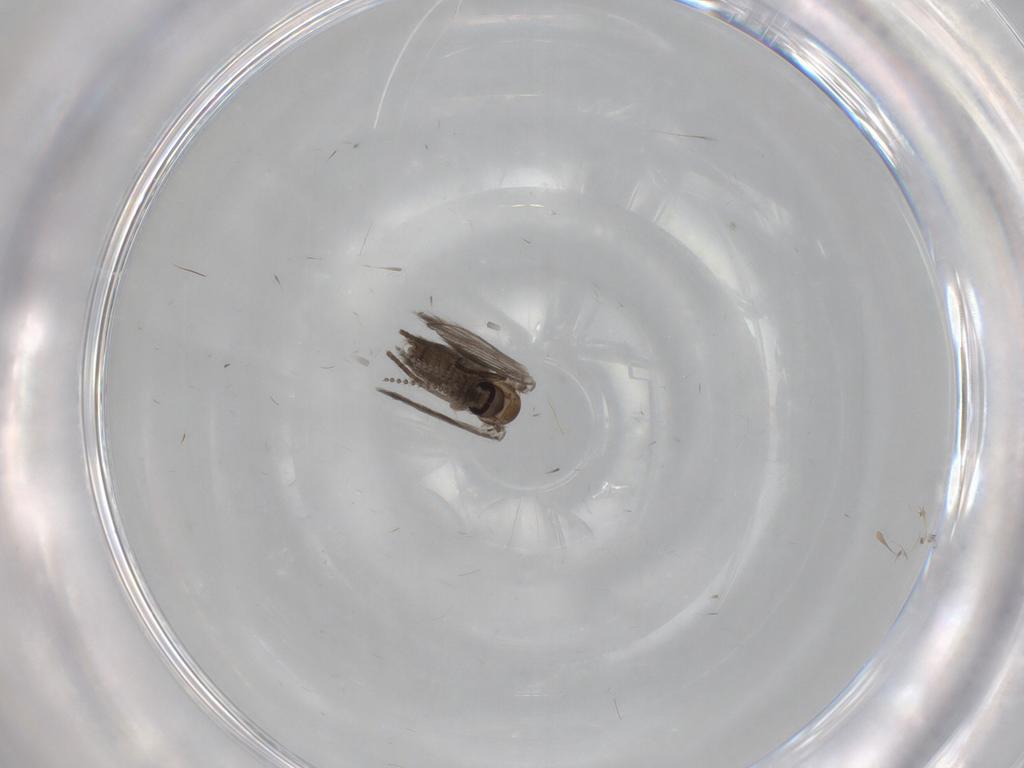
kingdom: Animalia
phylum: Arthropoda
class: Insecta
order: Diptera
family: Psychodidae
